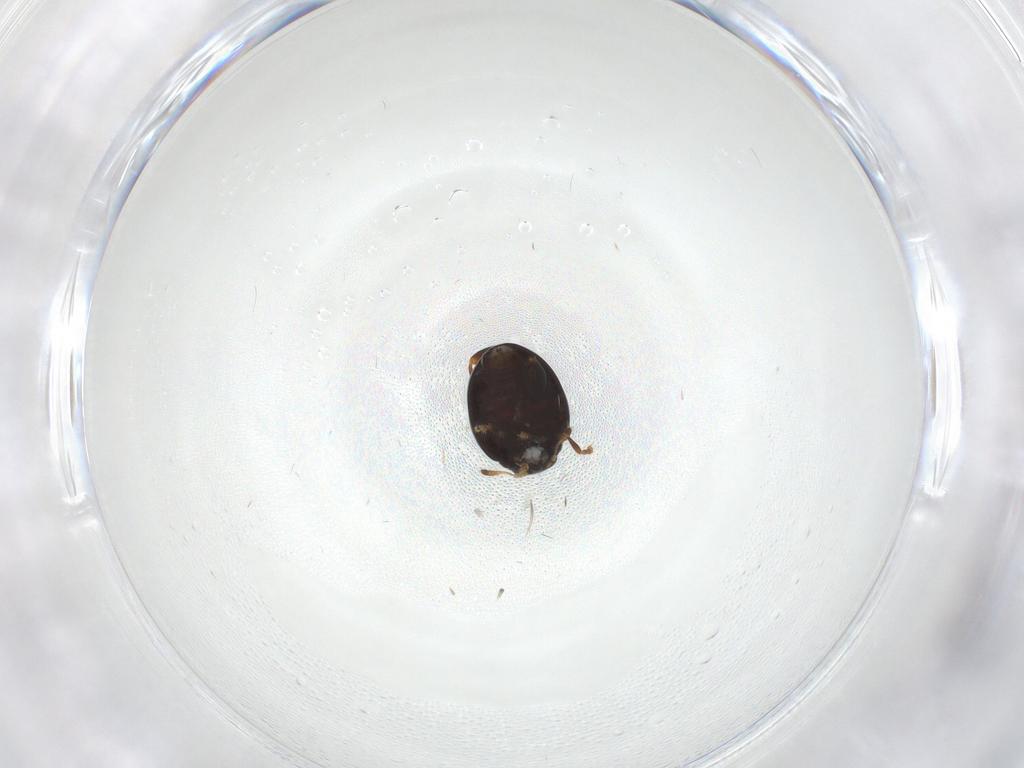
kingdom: Animalia
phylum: Arthropoda
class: Insecta
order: Coleoptera
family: Chrysomelidae
